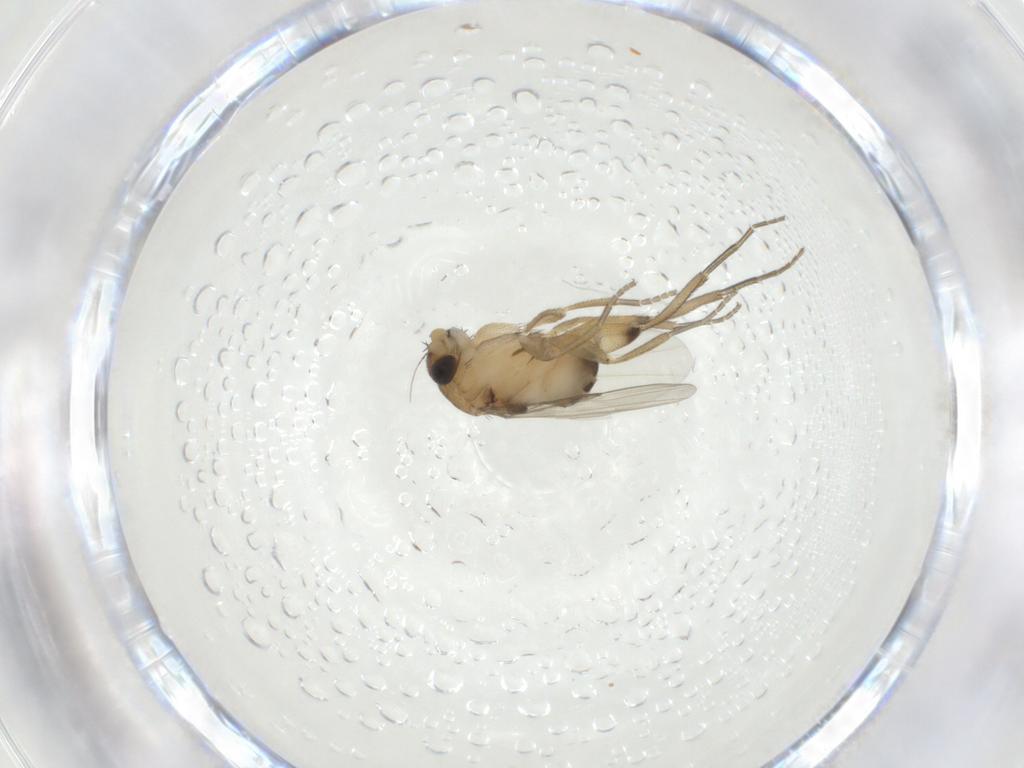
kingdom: Animalia
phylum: Arthropoda
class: Insecta
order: Diptera
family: Phoridae
